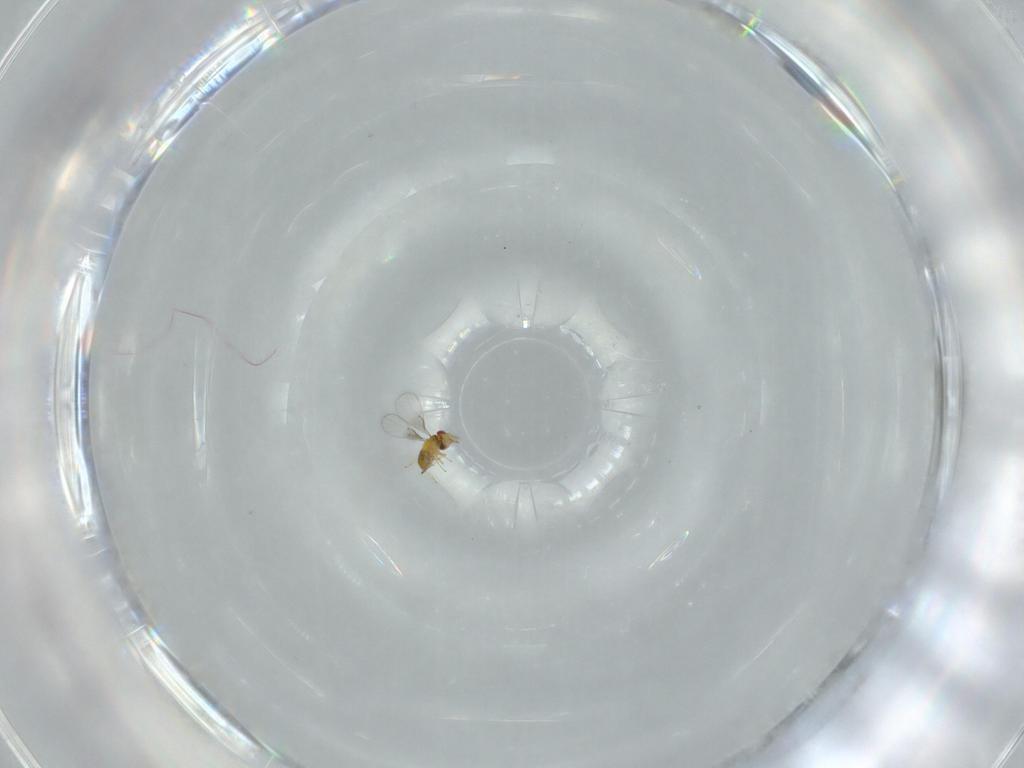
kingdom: Animalia
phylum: Arthropoda
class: Insecta
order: Hymenoptera
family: Trichogrammatidae
